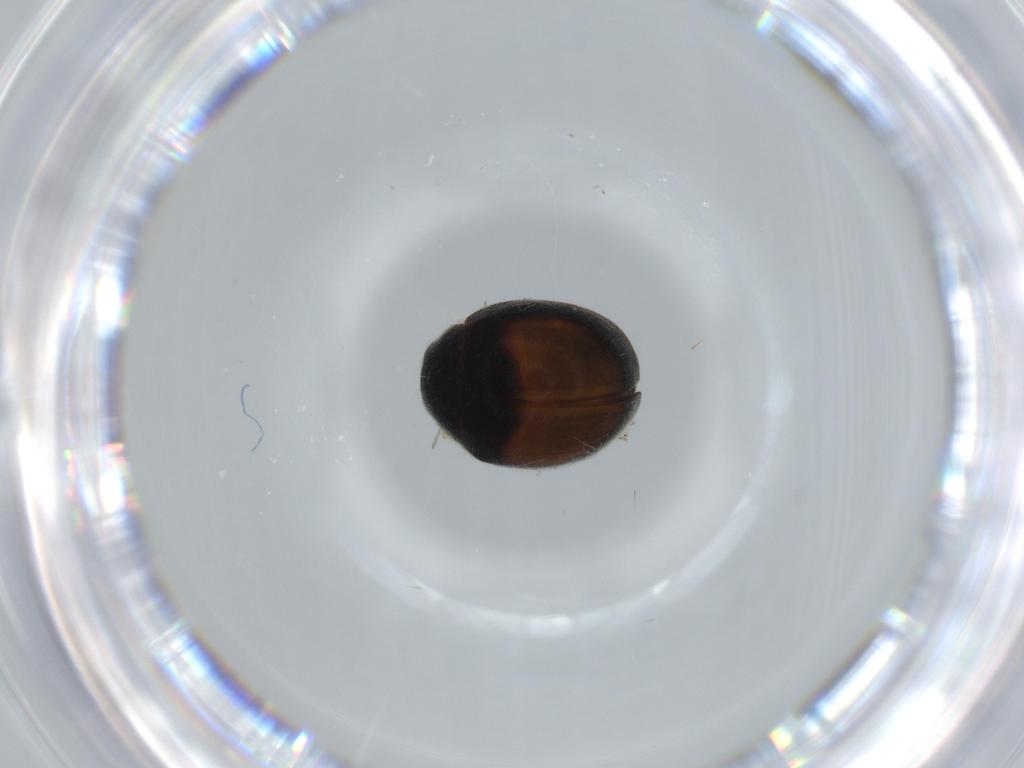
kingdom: Animalia
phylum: Arthropoda
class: Insecta
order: Coleoptera
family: Coccinellidae
